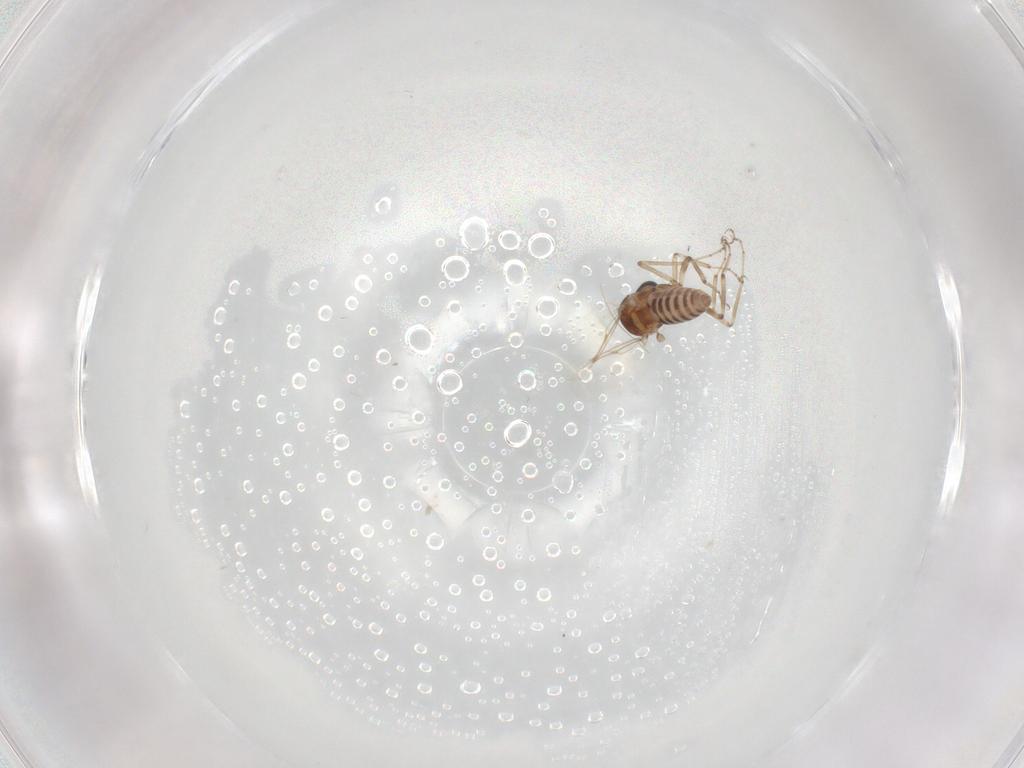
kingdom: Animalia
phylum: Arthropoda
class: Insecta
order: Diptera
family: Ceratopogonidae
